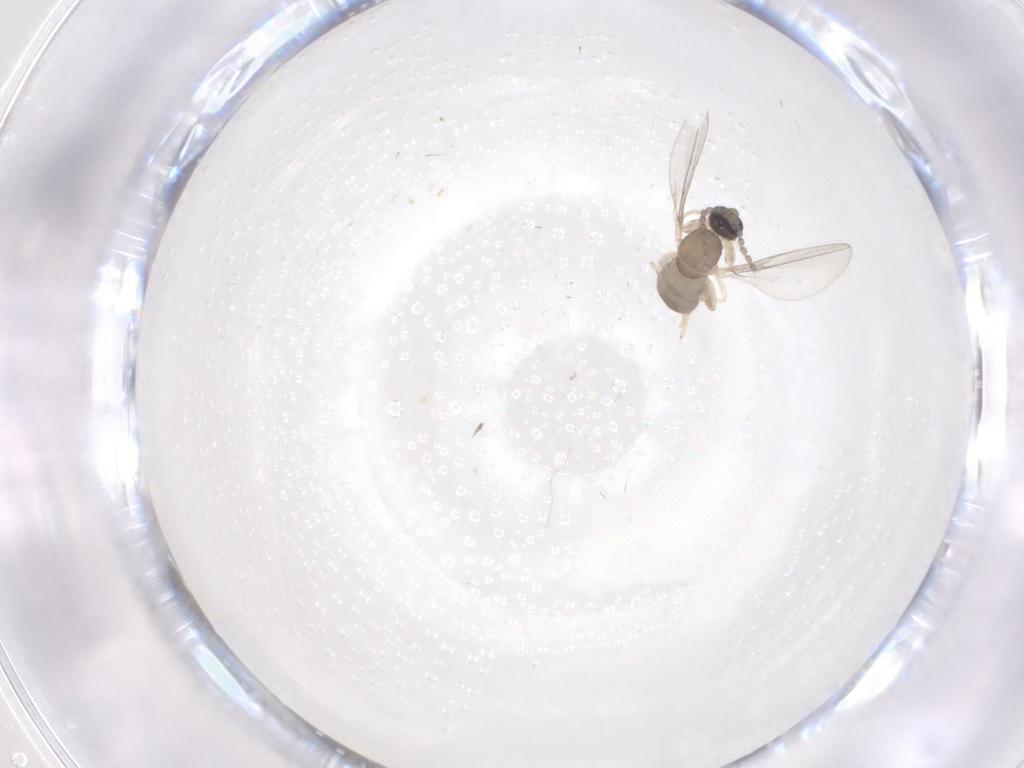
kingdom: Animalia
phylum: Arthropoda
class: Insecta
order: Diptera
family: Cecidomyiidae
